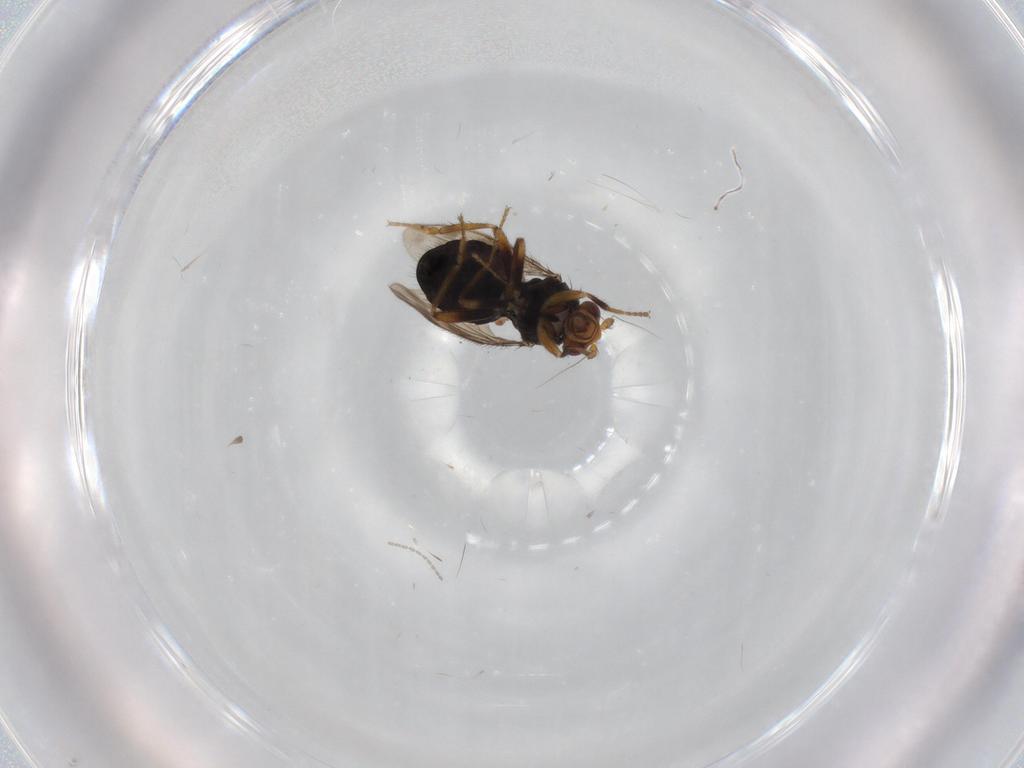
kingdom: Animalia
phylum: Arthropoda
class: Insecta
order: Diptera
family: Sphaeroceridae
